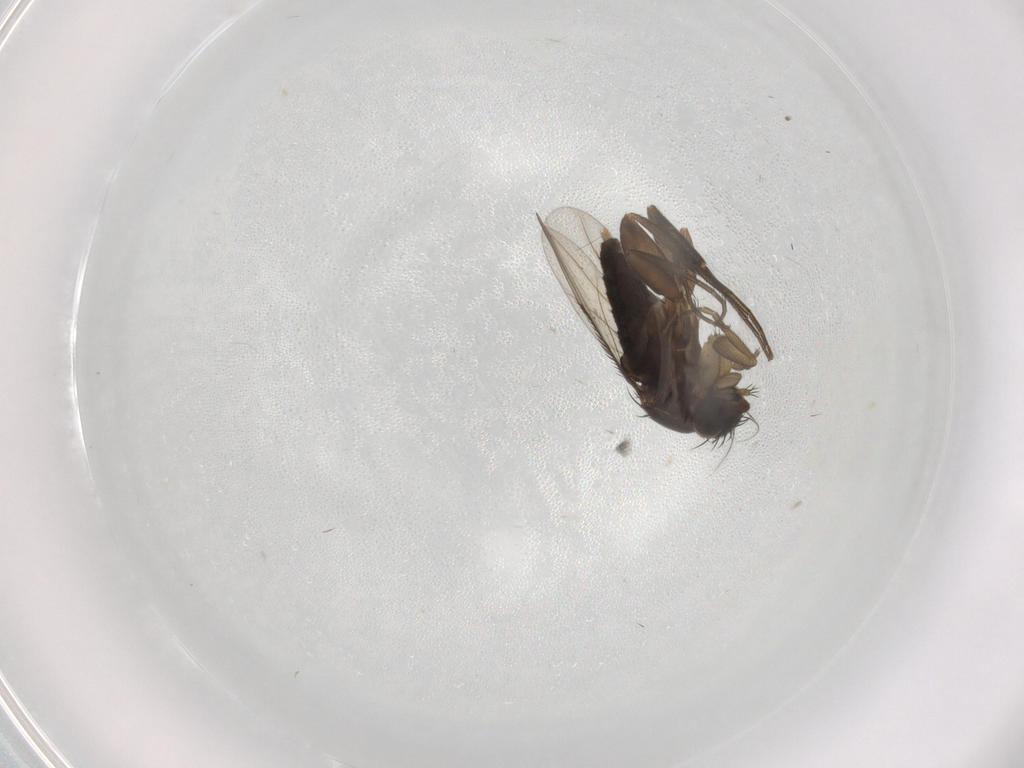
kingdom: Animalia
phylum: Arthropoda
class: Insecta
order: Diptera
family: Phoridae
